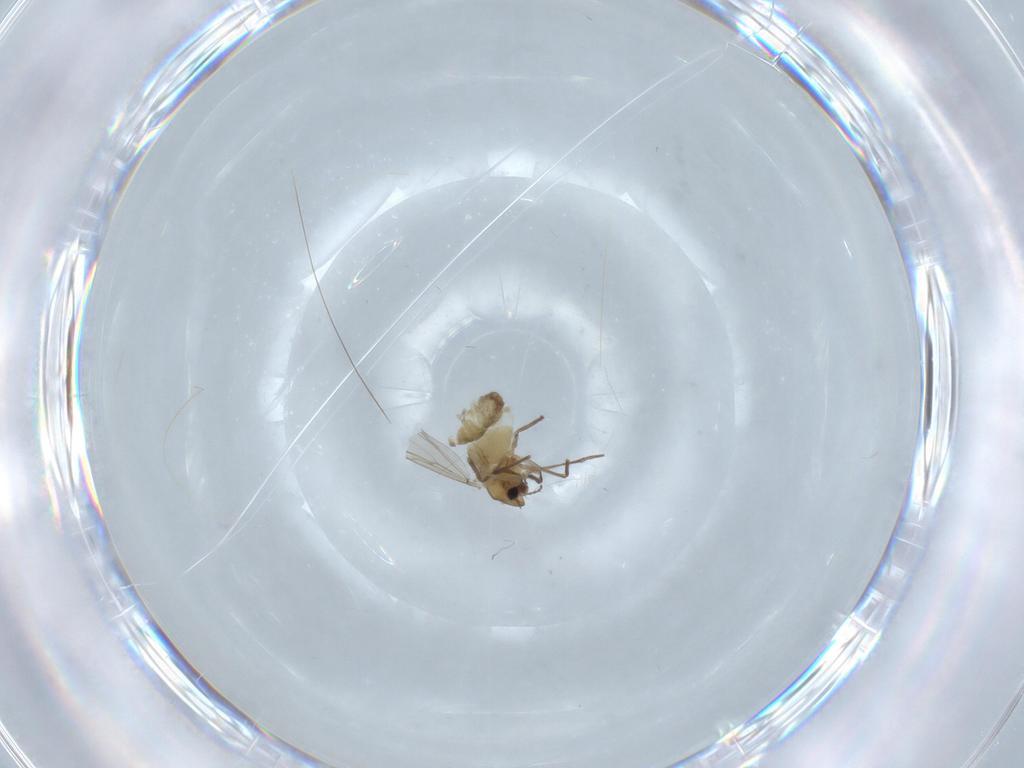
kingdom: Animalia
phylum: Arthropoda
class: Insecta
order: Diptera
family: Chironomidae
